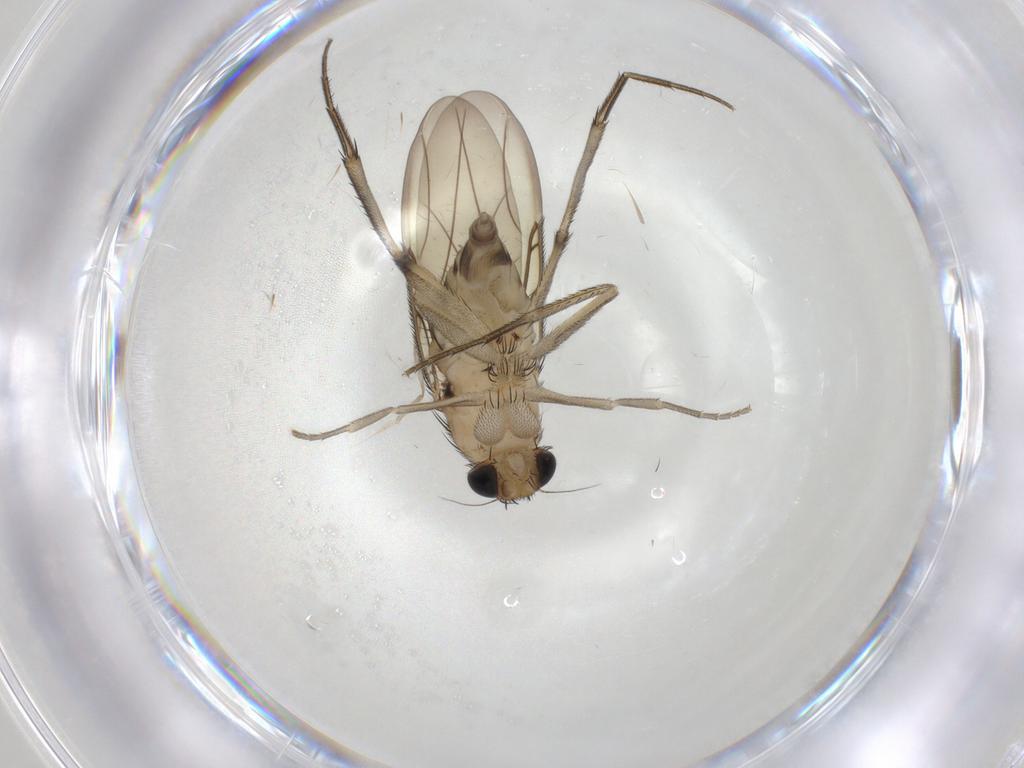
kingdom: Animalia
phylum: Arthropoda
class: Insecta
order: Diptera
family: Phoridae
